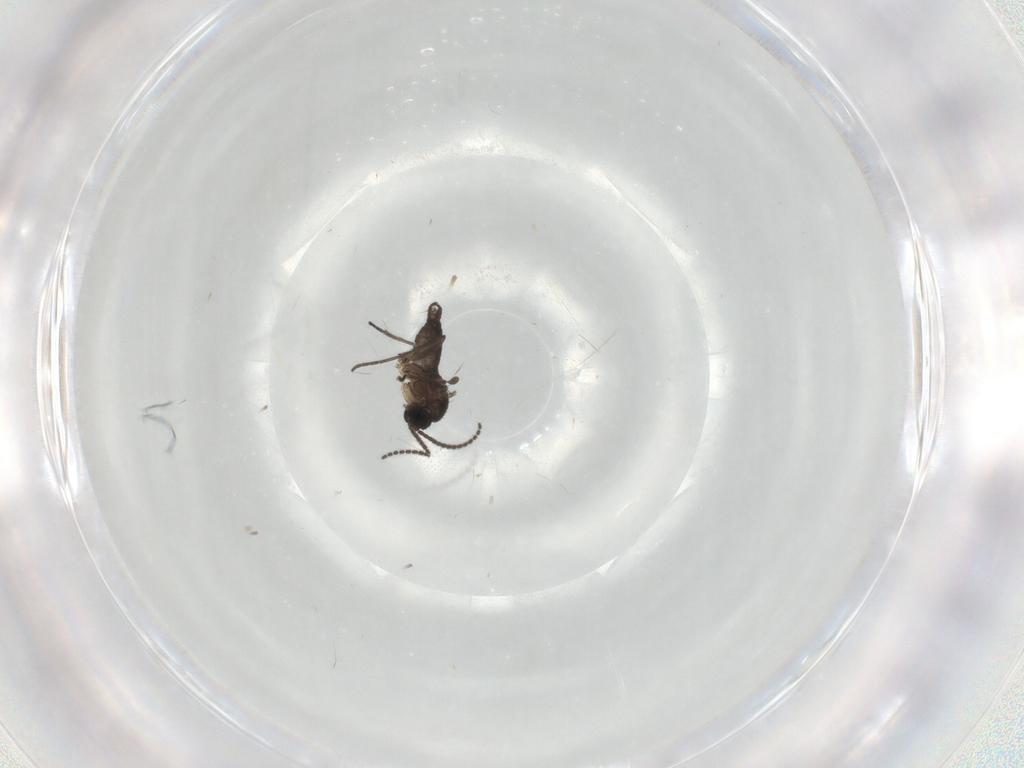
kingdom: Animalia
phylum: Arthropoda
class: Insecta
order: Diptera
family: Sciaridae
